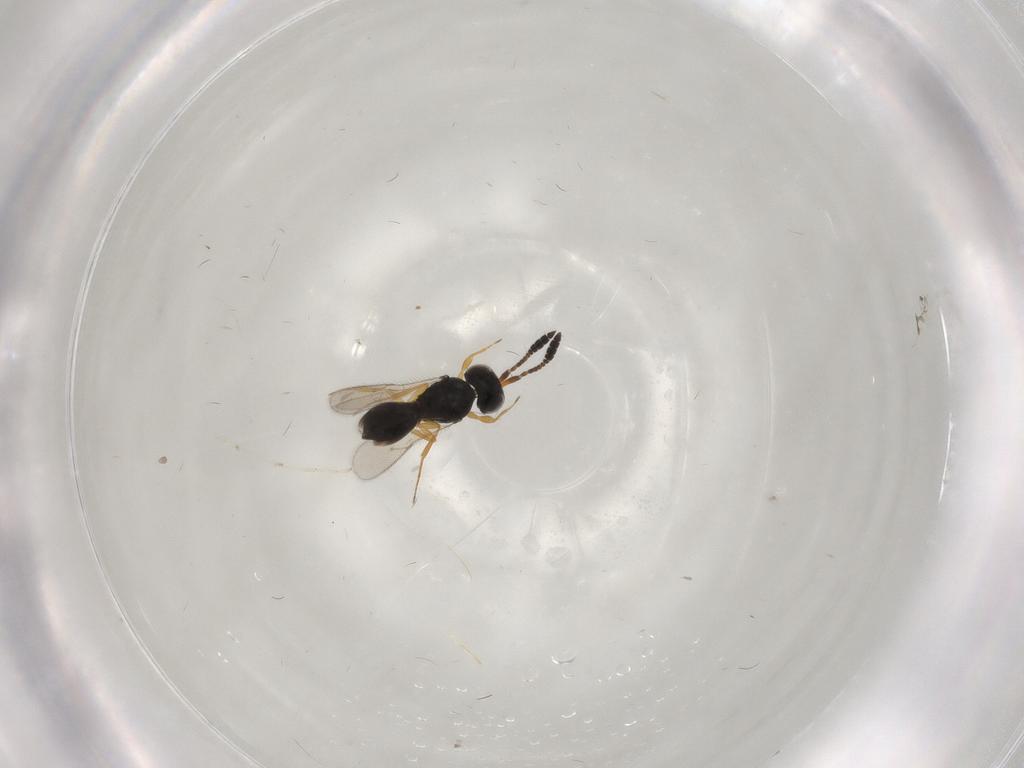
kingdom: Animalia
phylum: Arthropoda
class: Insecta
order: Hymenoptera
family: Scelionidae
